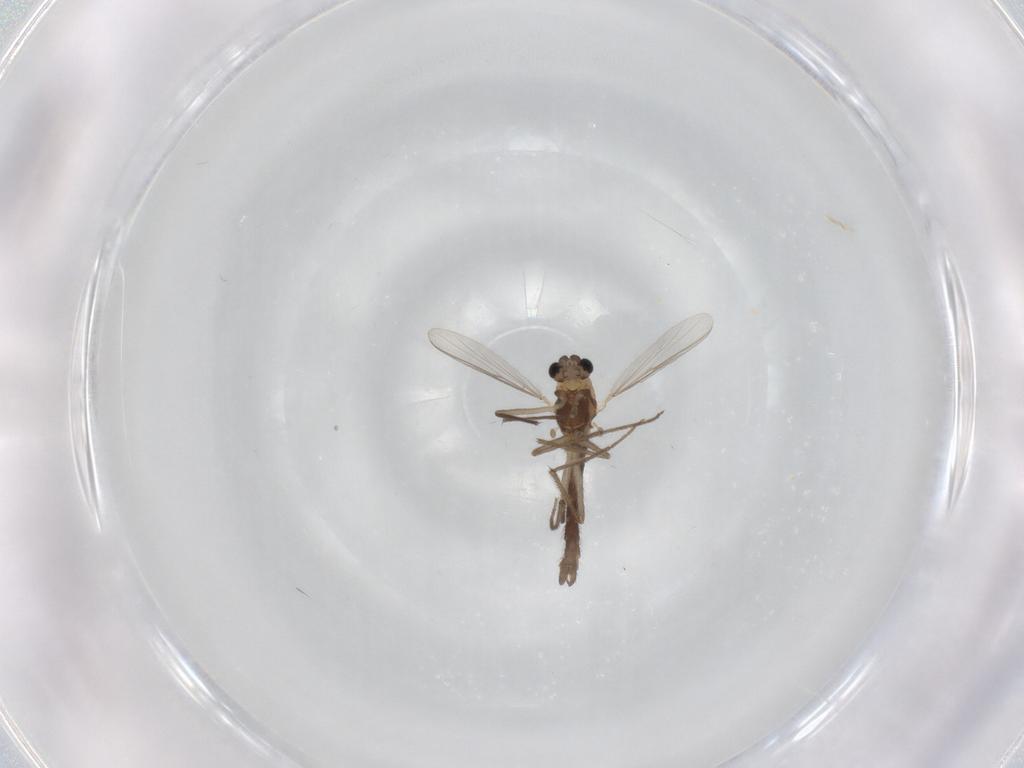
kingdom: Animalia
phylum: Arthropoda
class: Insecta
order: Diptera
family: Chironomidae
